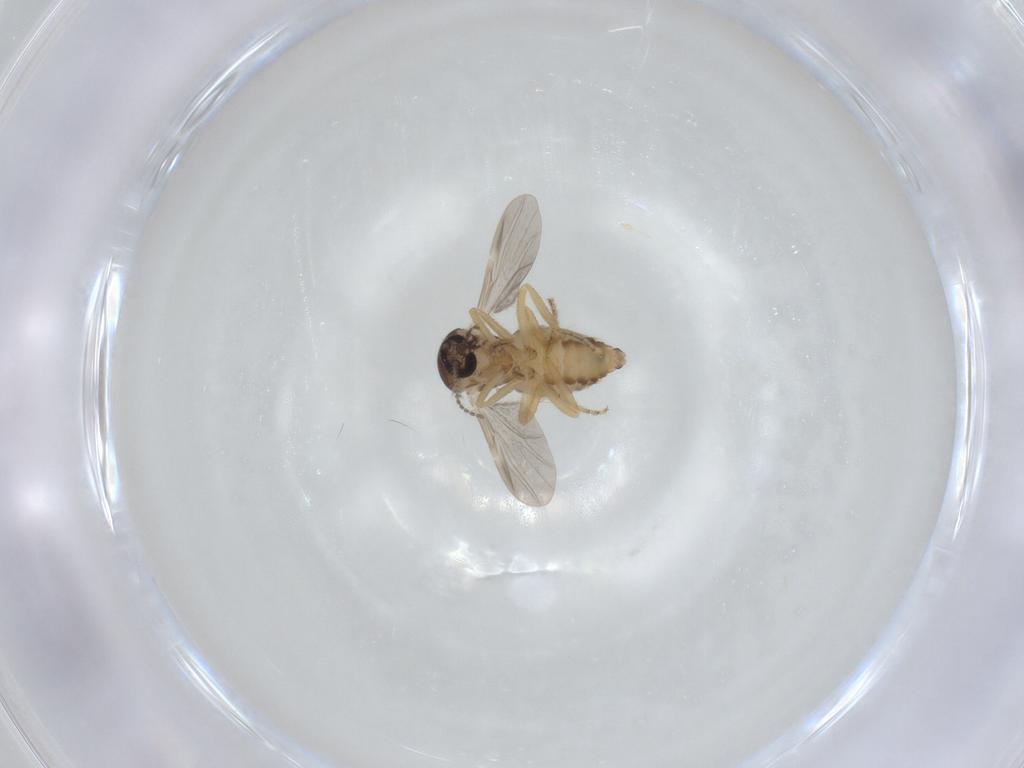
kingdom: Animalia
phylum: Arthropoda
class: Insecta
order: Diptera
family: Ceratopogonidae
